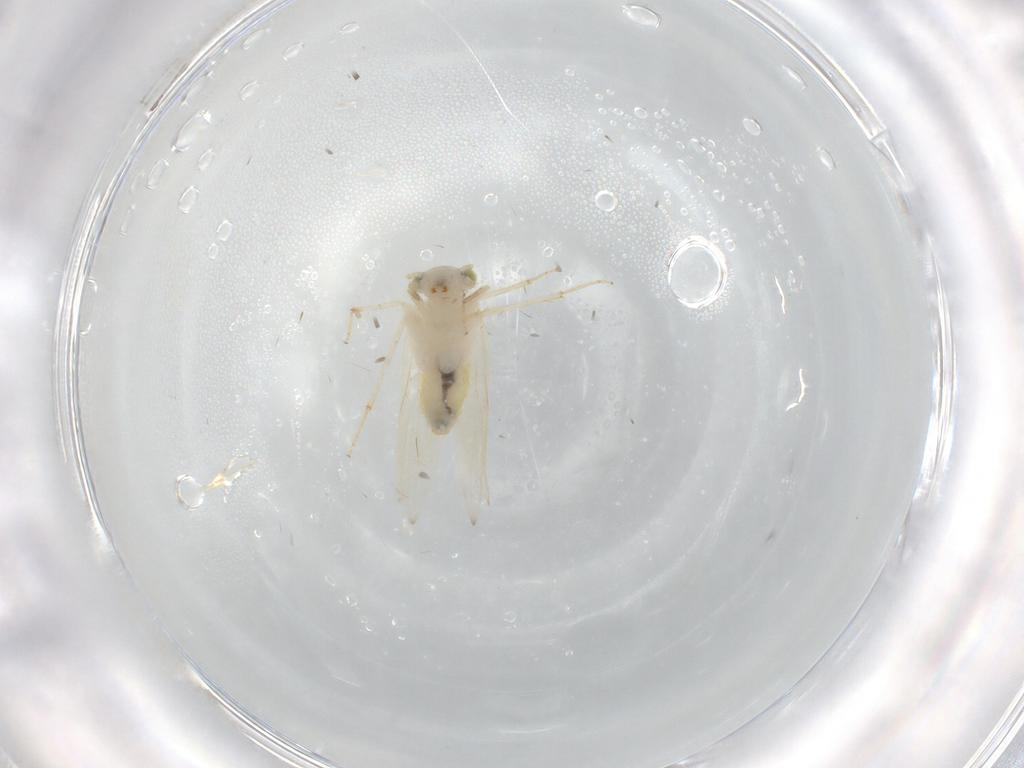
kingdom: Animalia
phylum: Arthropoda
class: Insecta
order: Psocodea
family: Lepidopsocidae
